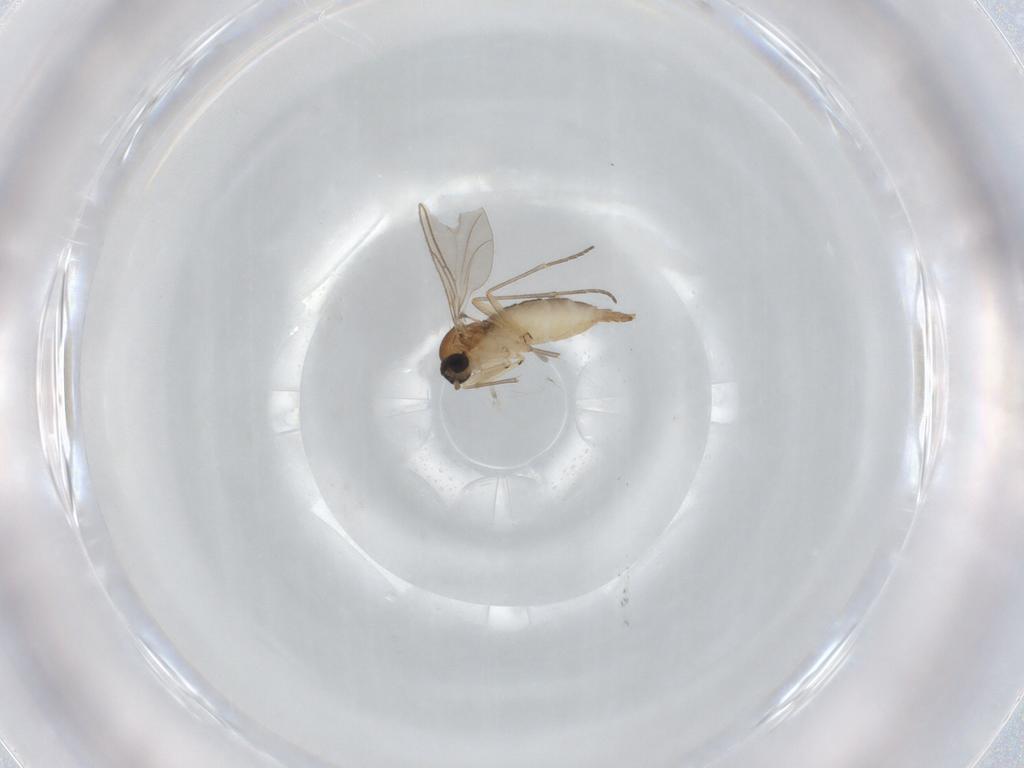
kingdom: Animalia
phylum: Arthropoda
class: Insecta
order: Diptera
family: Sciaridae
